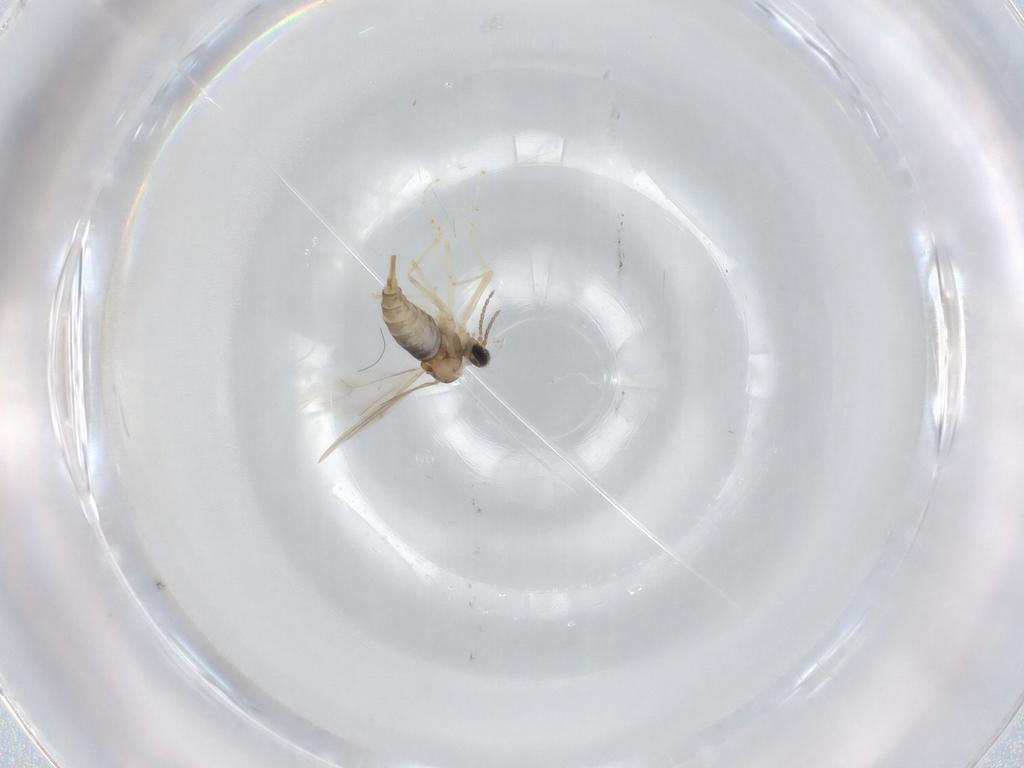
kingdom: Animalia
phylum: Arthropoda
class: Insecta
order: Diptera
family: Cecidomyiidae
